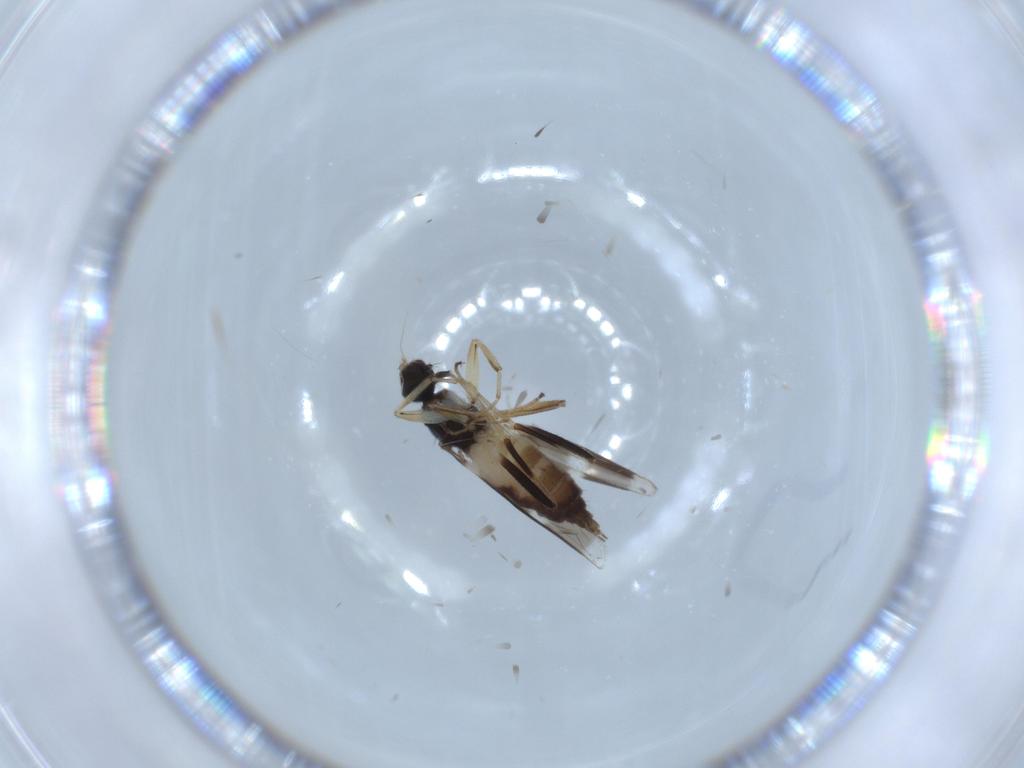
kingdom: Animalia
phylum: Arthropoda
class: Insecta
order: Diptera
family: Hybotidae
